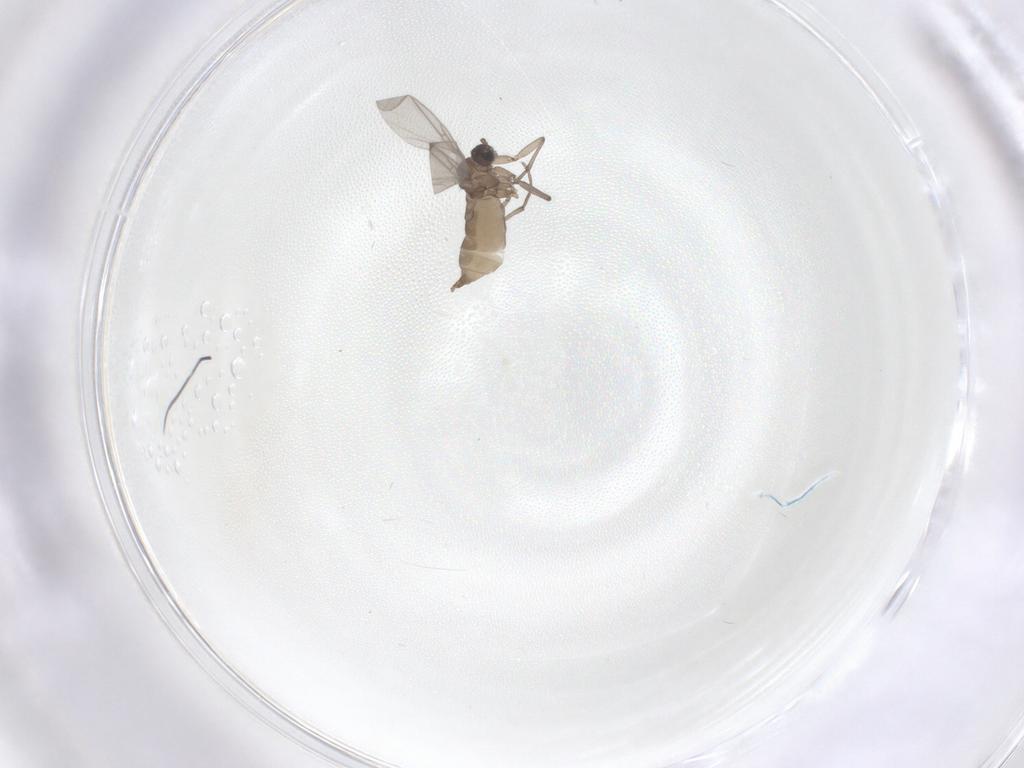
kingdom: Animalia
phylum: Arthropoda
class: Insecta
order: Diptera
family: Sciaridae
